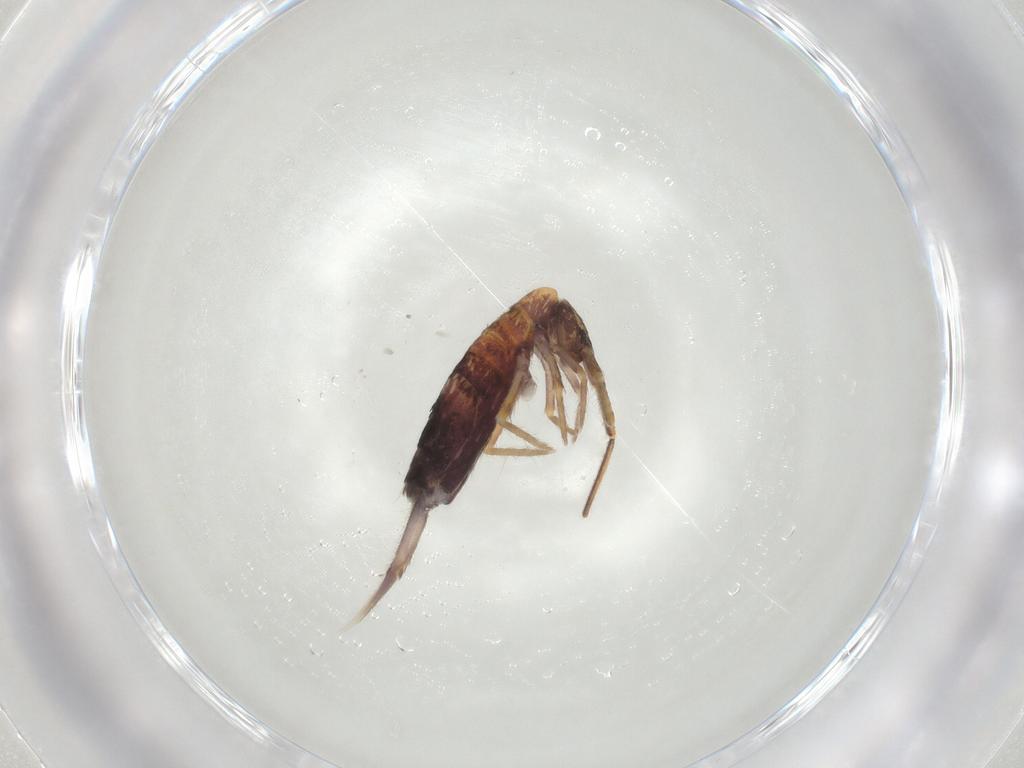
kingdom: Animalia
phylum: Arthropoda
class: Collembola
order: Entomobryomorpha
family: Entomobryidae
